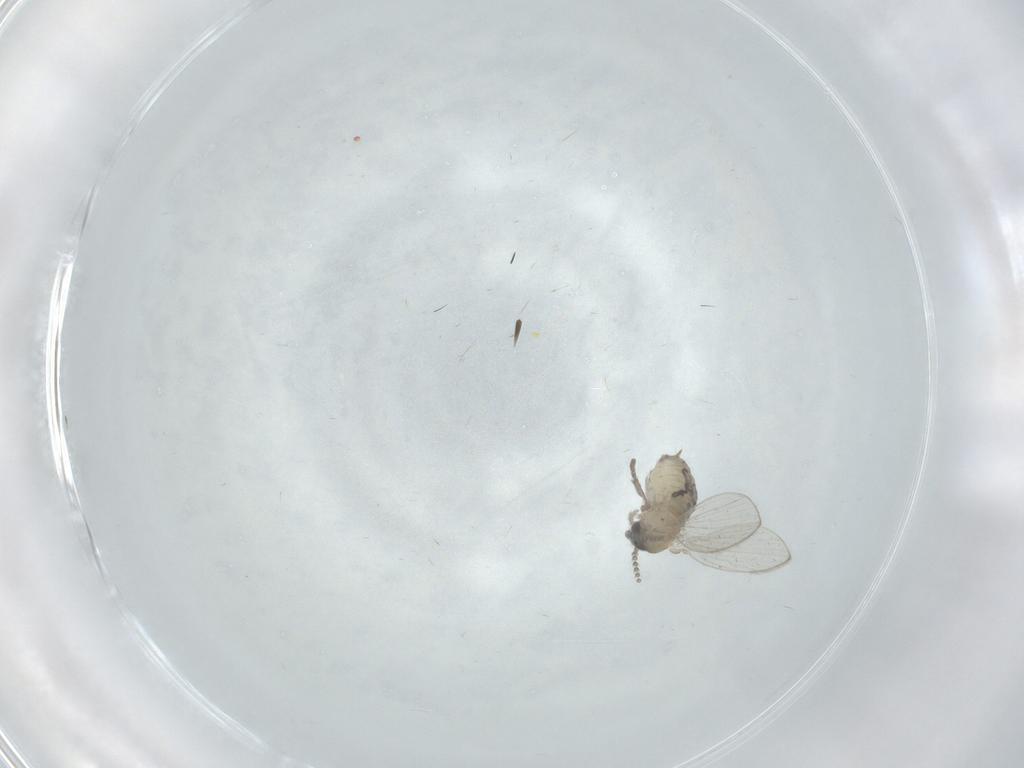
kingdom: Animalia
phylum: Arthropoda
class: Insecta
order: Diptera
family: Psychodidae
